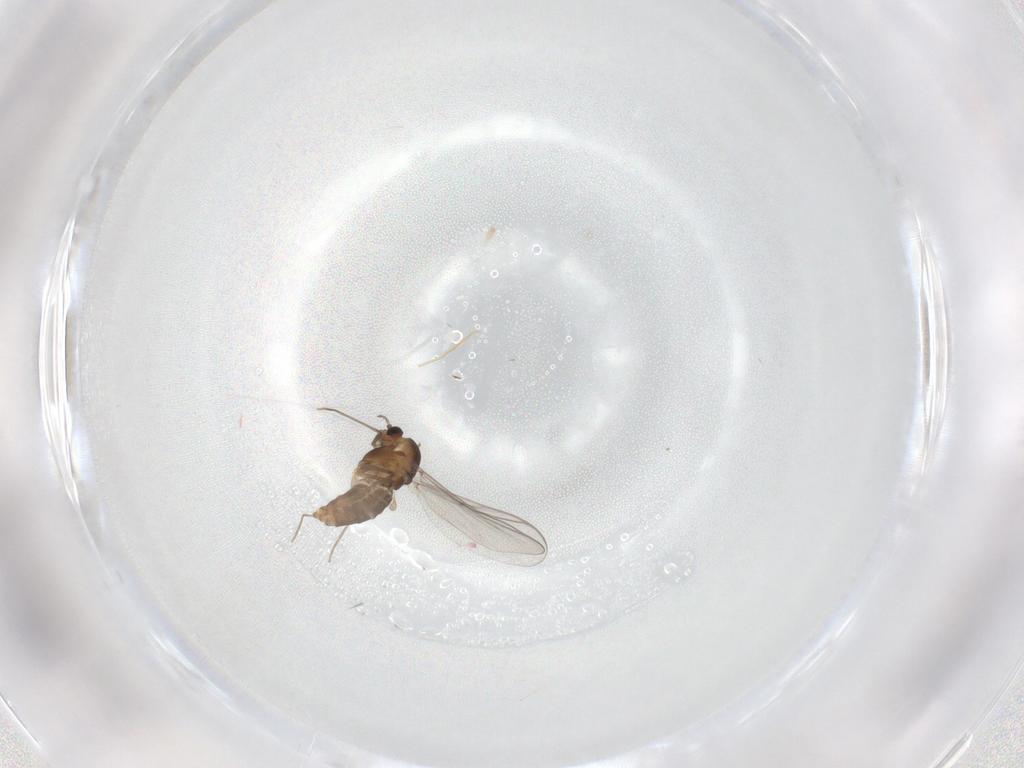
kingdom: Animalia
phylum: Arthropoda
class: Insecta
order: Diptera
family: Chironomidae
